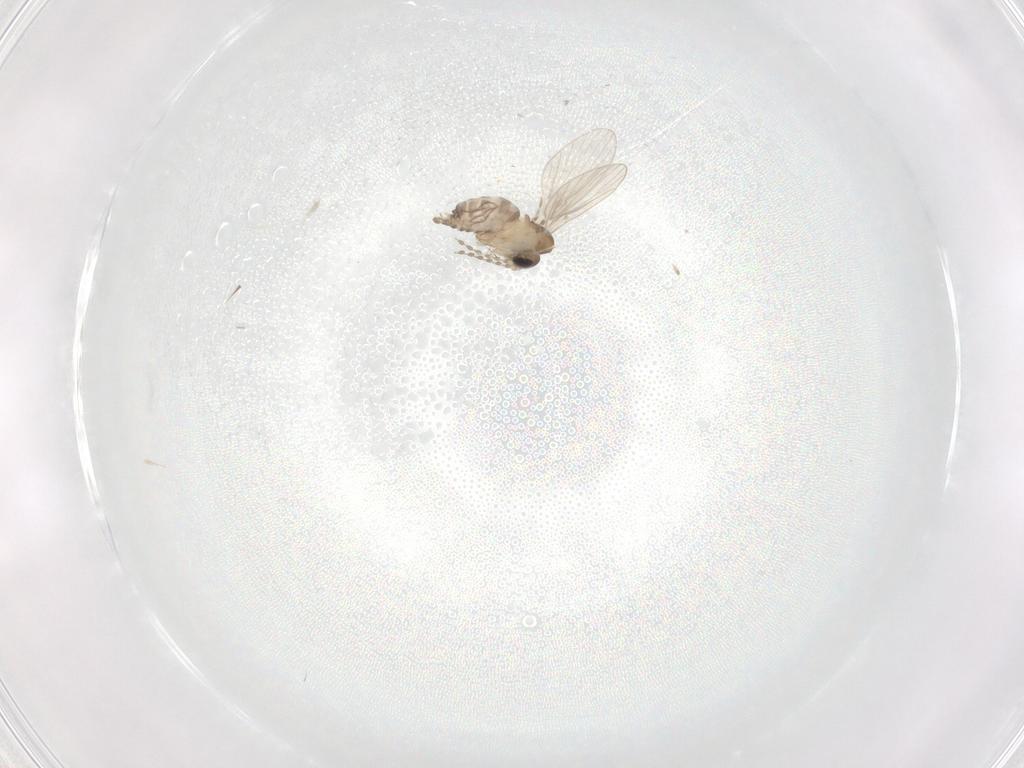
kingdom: Animalia
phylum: Arthropoda
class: Insecta
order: Diptera
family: Psychodidae
